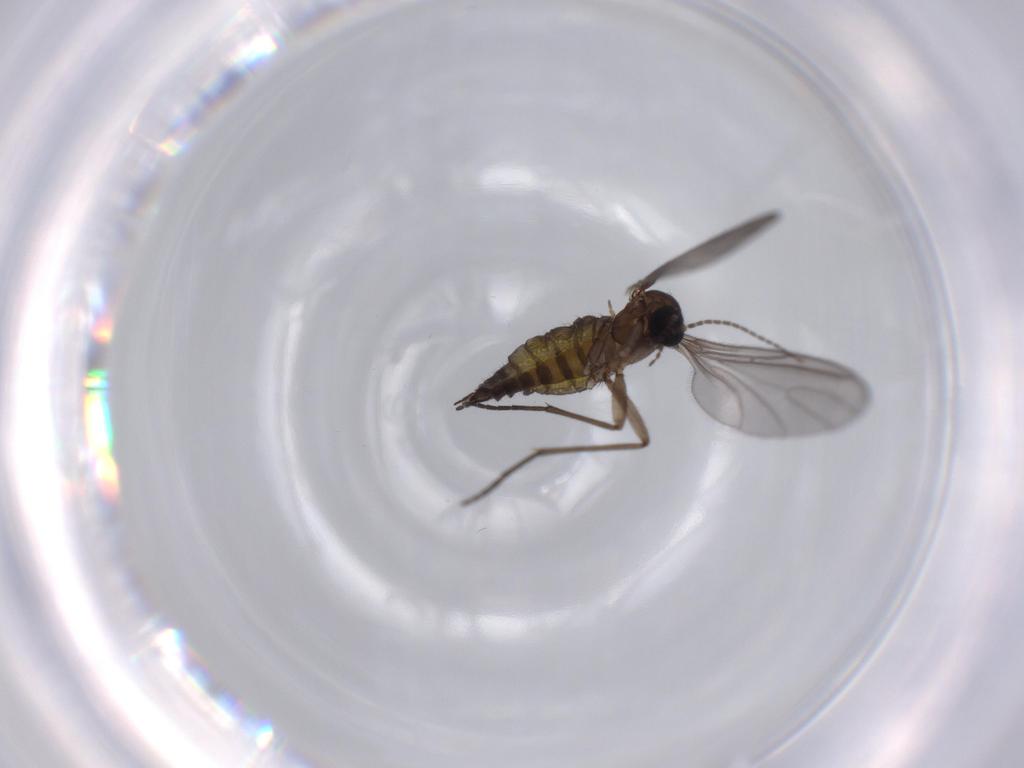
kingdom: Animalia
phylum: Arthropoda
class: Insecta
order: Diptera
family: Sciaridae
